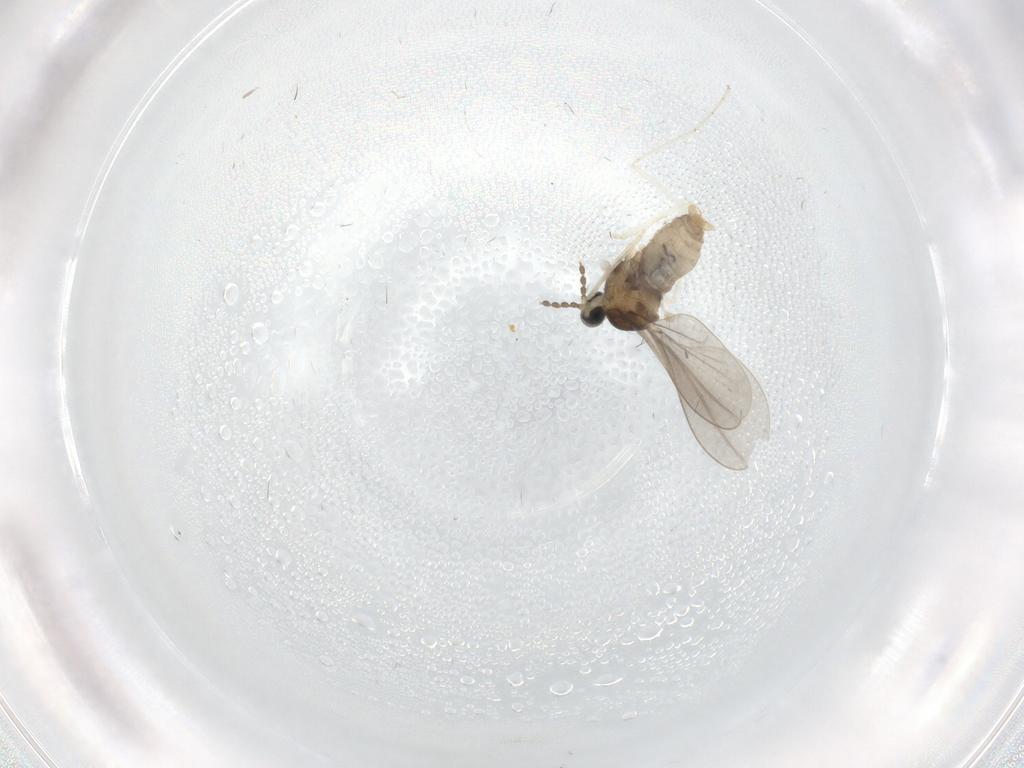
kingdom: Animalia
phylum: Arthropoda
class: Insecta
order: Diptera
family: Cecidomyiidae
